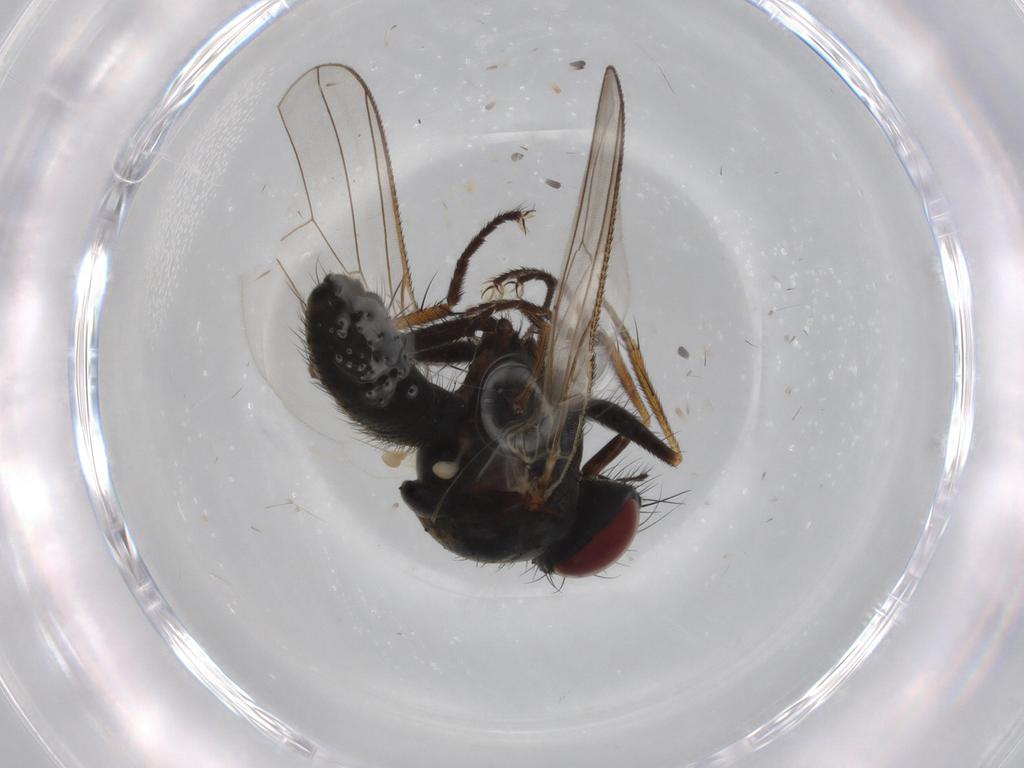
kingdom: Animalia
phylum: Arthropoda
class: Insecta
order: Diptera
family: Muscidae
